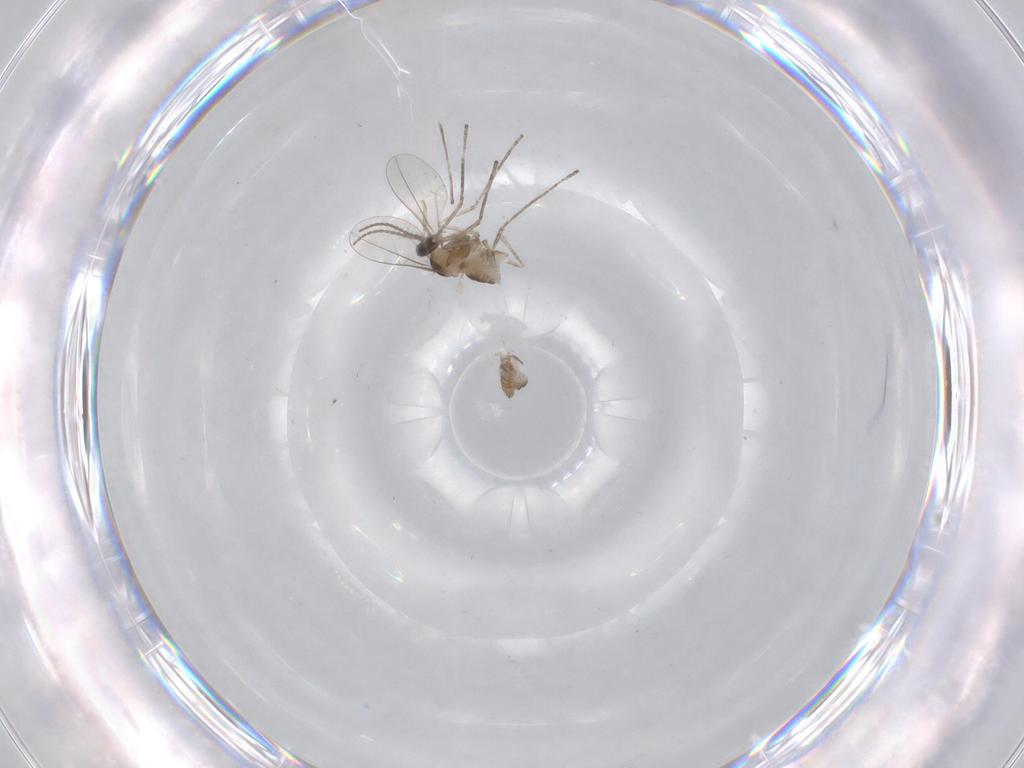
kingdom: Animalia
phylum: Arthropoda
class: Insecta
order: Diptera
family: Cecidomyiidae
